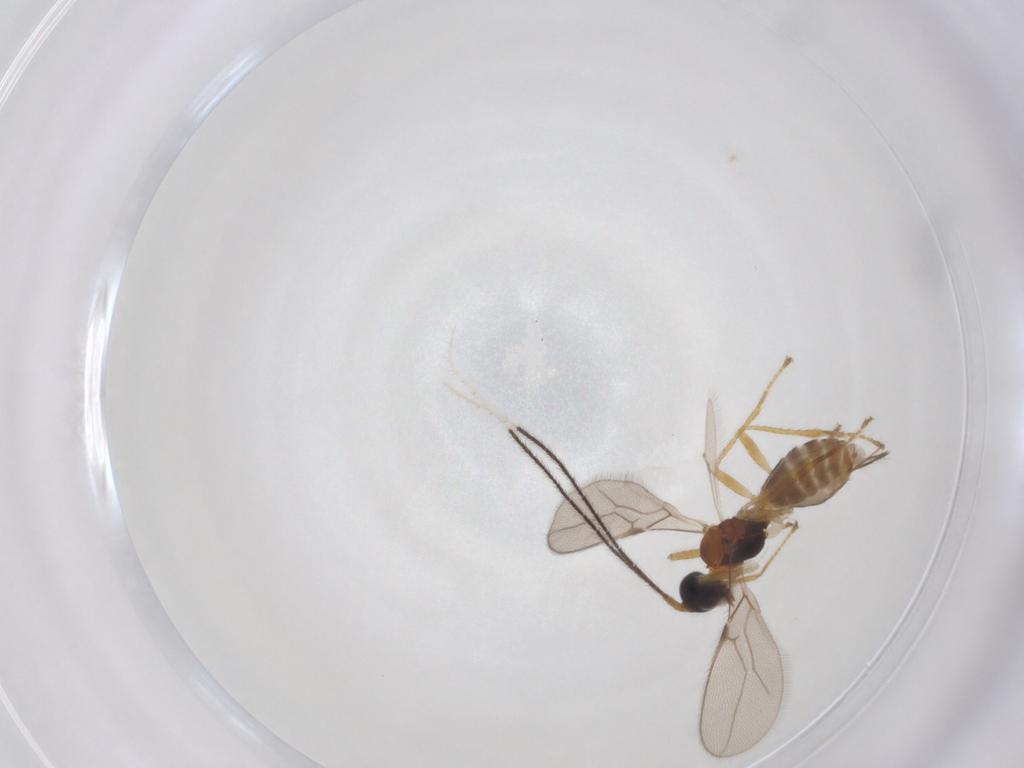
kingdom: Animalia
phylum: Arthropoda
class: Insecta
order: Hymenoptera
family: Braconidae
